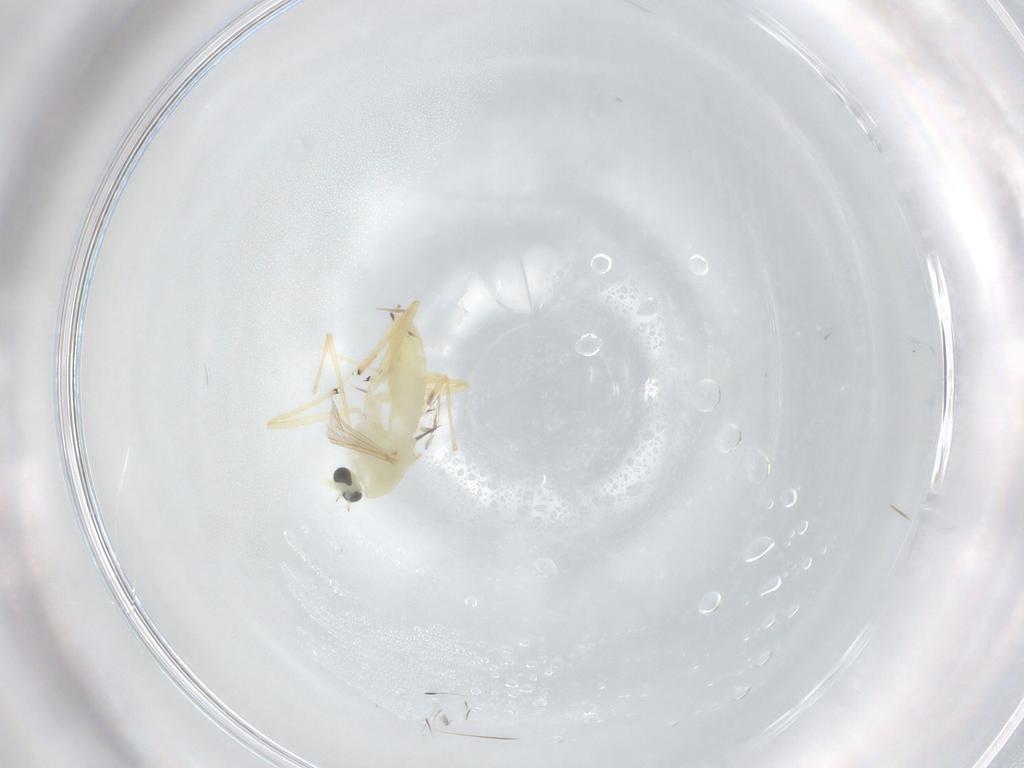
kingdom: Animalia
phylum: Arthropoda
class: Insecta
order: Diptera
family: Chironomidae
